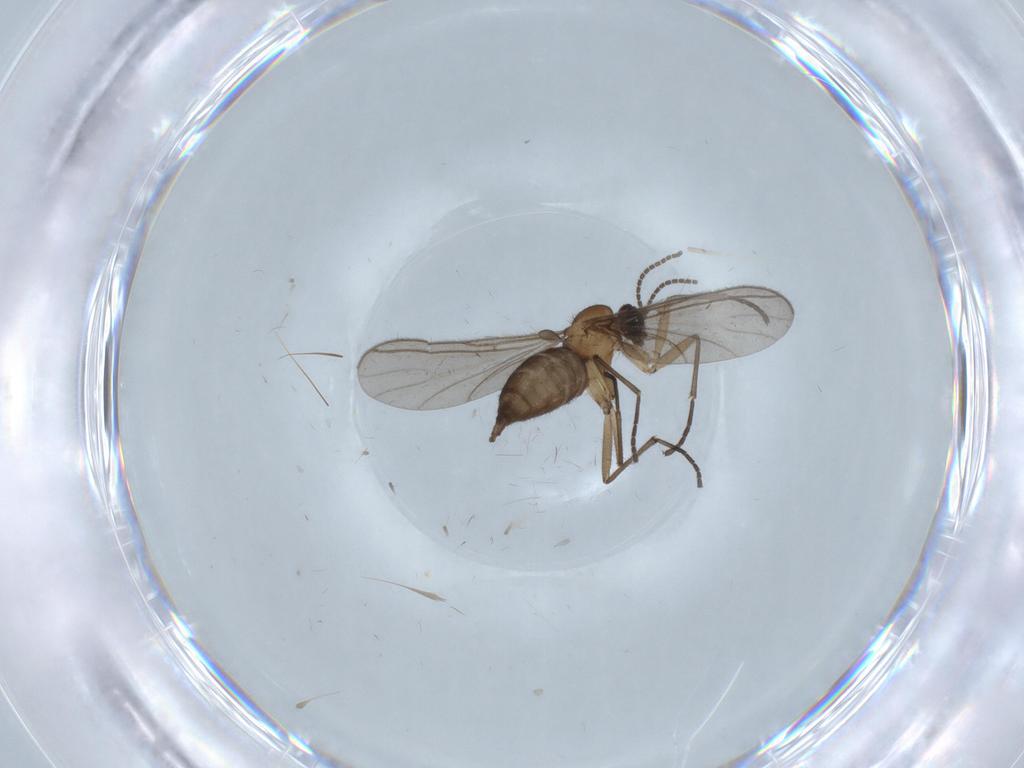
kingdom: Animalia
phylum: Arthropoda
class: Insecta
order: Diptera
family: Sciaridae
